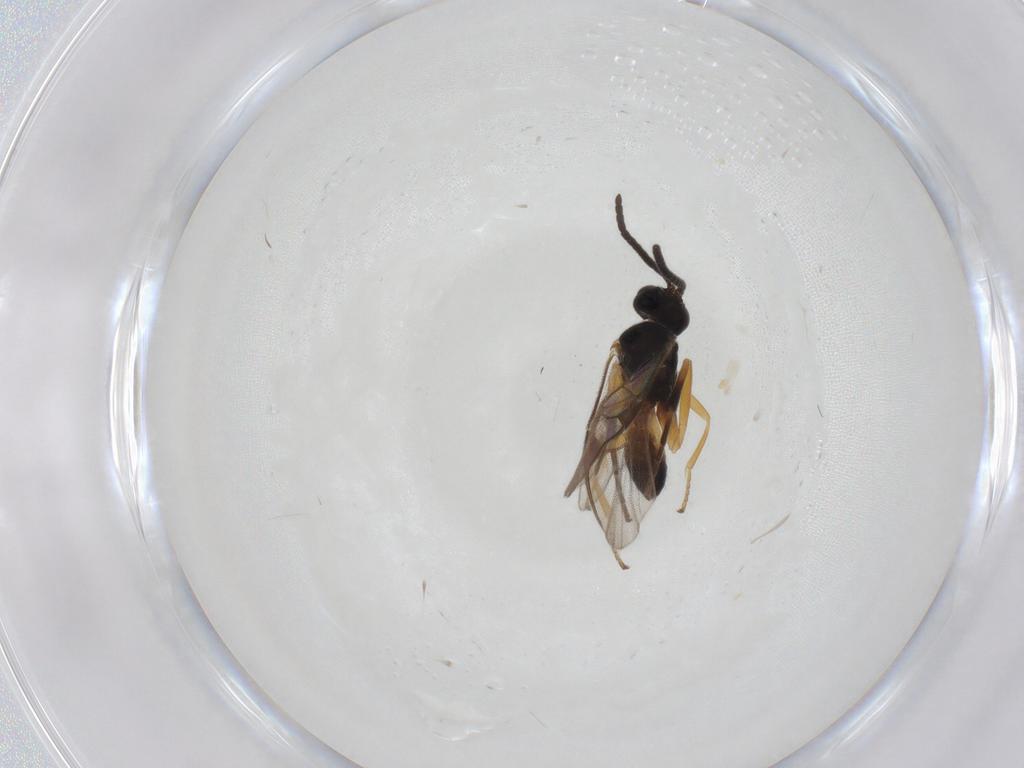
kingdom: Animalia
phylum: Arthropoda
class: Insecta
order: Hymenoptera
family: Braconidae
